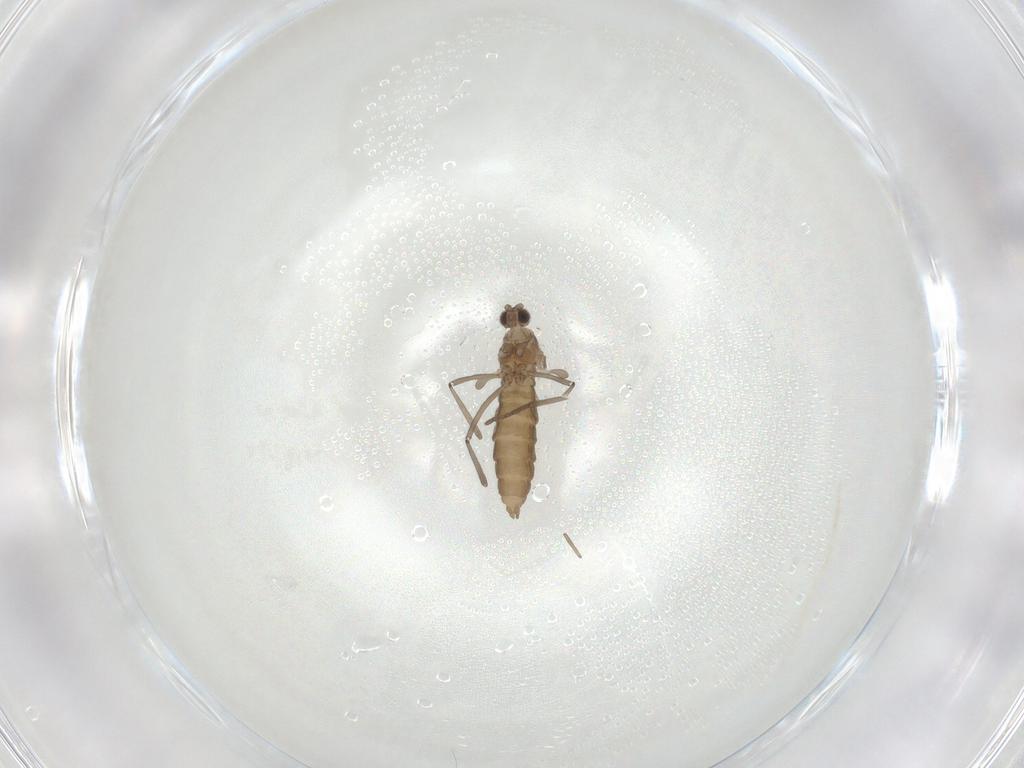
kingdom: Animalia
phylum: Arthropoda
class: Insecta
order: Diptera
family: Cecidomyiidae
